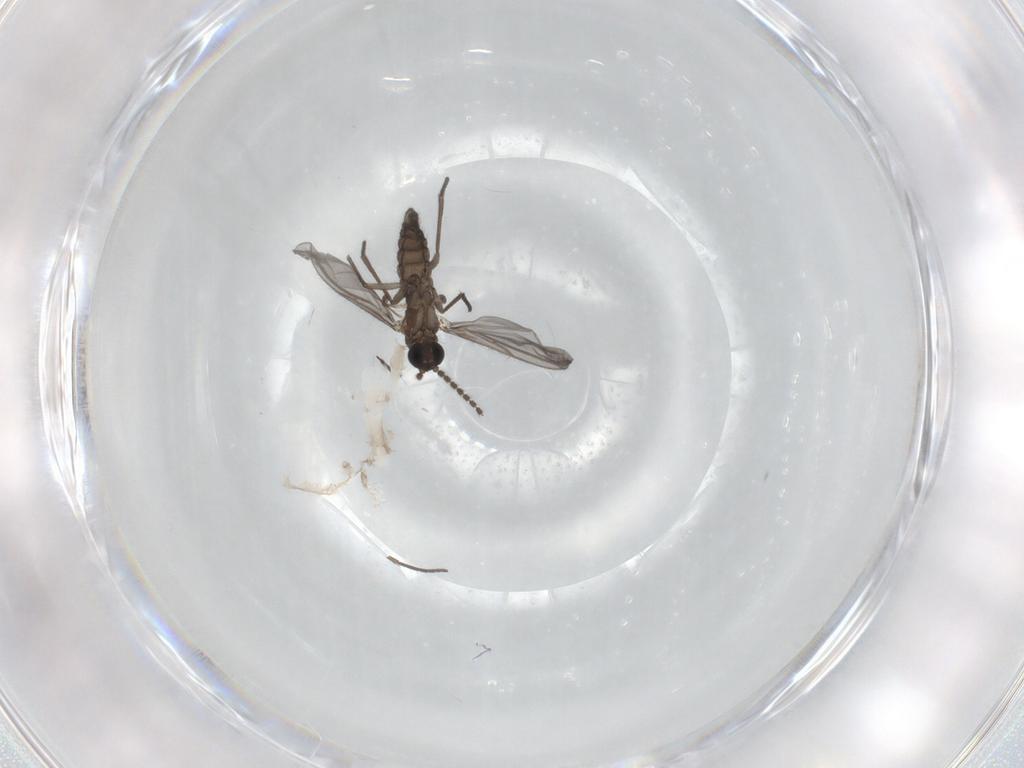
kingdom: Animalia
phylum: Arthropoda
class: Insecta
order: Diptera
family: Chironomidae
